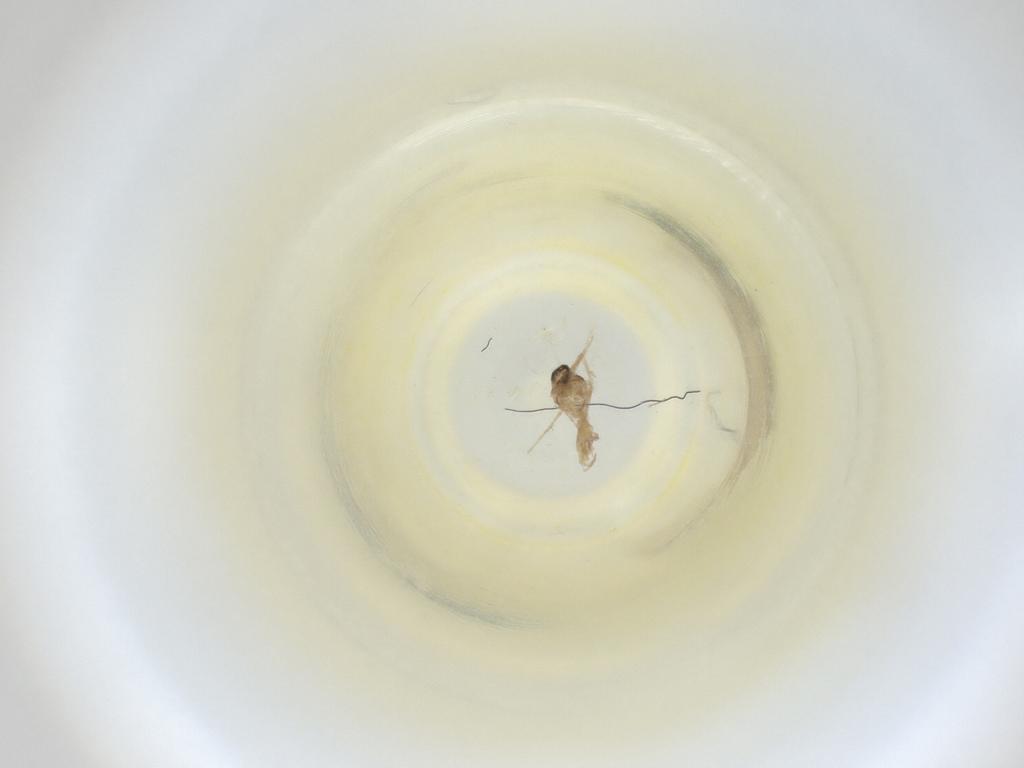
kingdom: Animalia
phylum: Arthropoda
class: Insecta
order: Diptera
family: Cecidomyiidae
